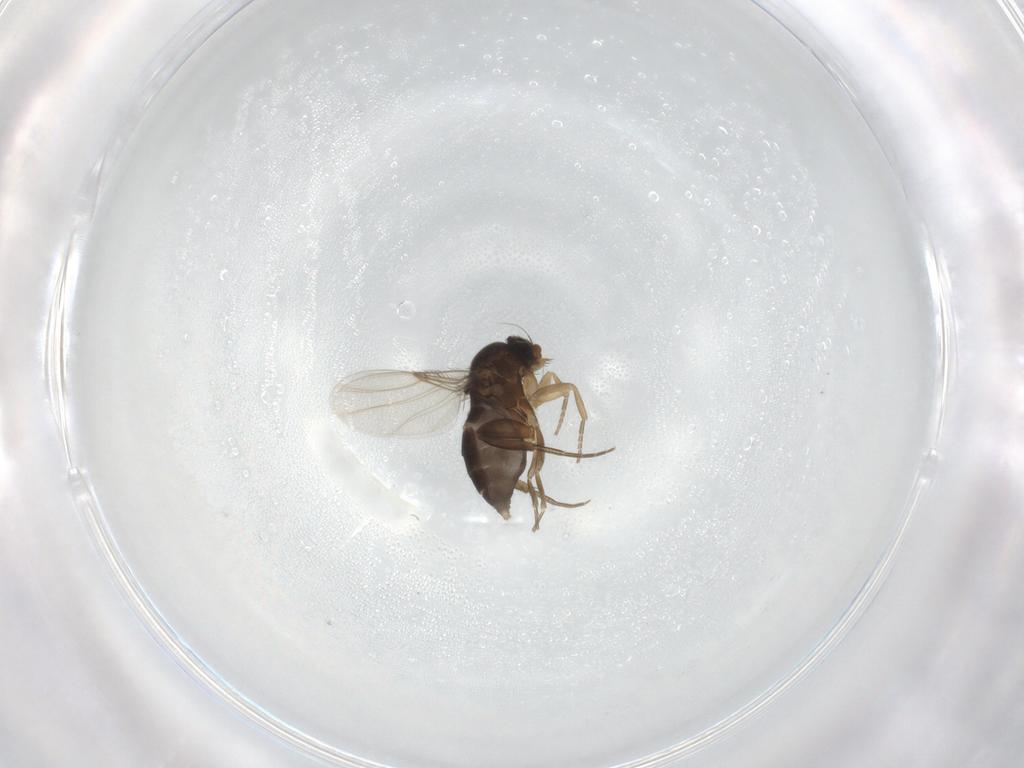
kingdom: Animalia
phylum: Arthropoda
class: Insecta
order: Diptera
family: Phoridae
